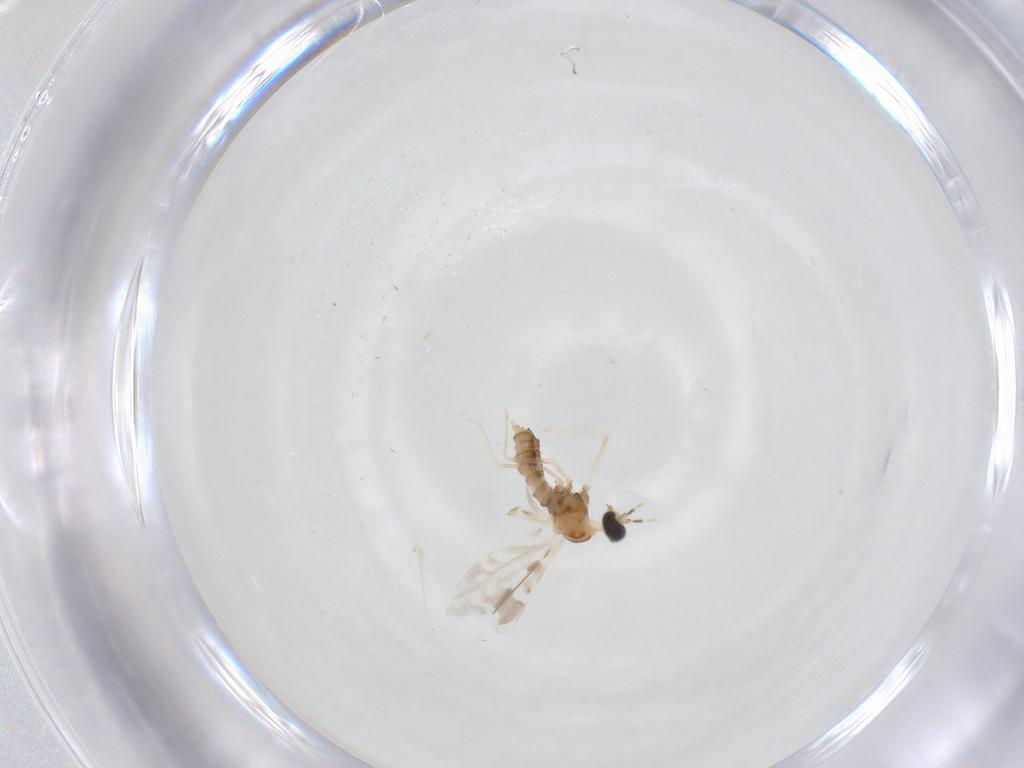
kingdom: Animalia
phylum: Arthropoda
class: Insecta
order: Diptera
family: Cecidomyiidae
